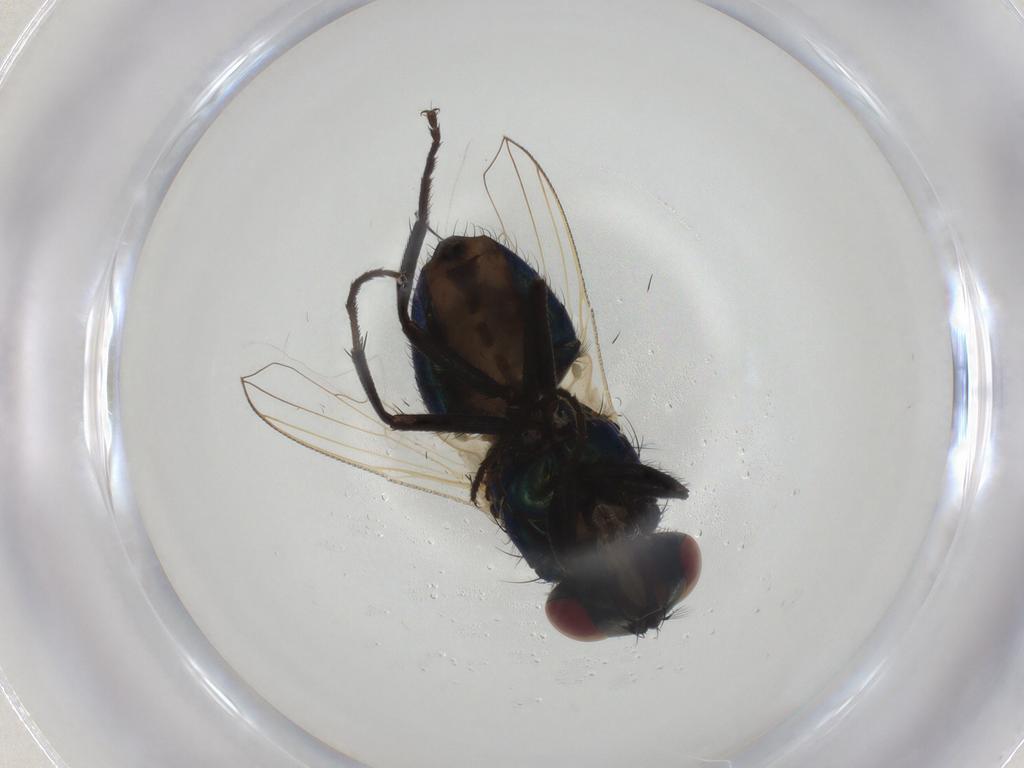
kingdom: Animalia
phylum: Arthropoda
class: Insecta
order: Diptera
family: Muscidae
